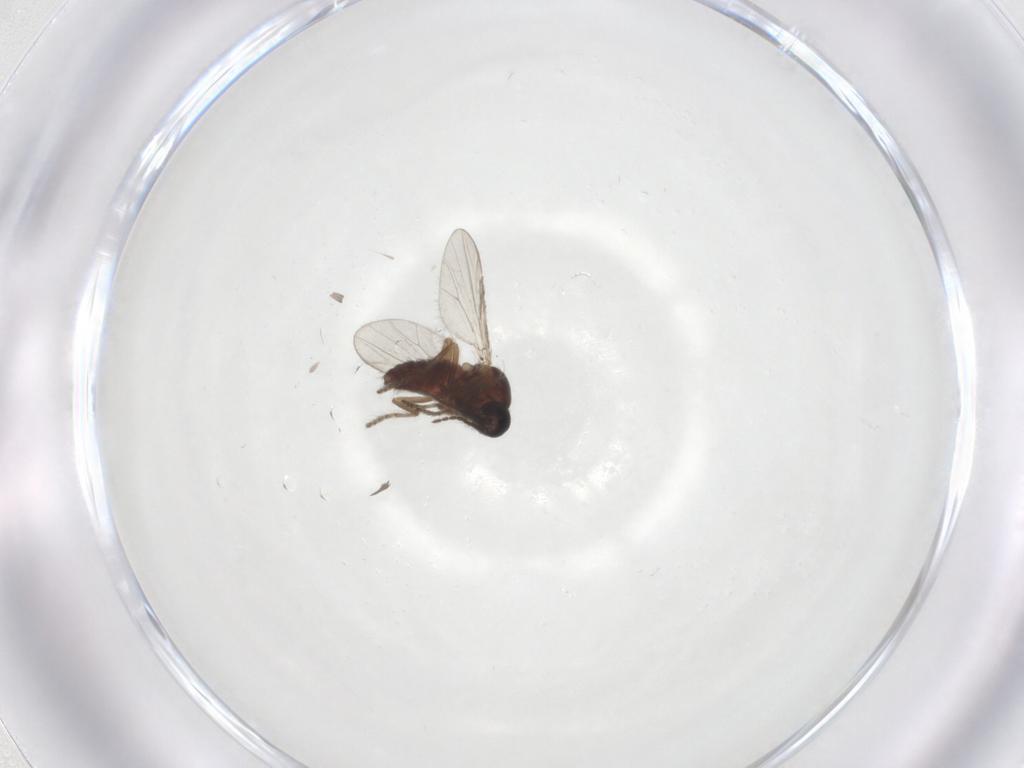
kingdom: Animalia
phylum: Arthropoda
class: Insecta
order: Diptera
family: Ceratopogonidae
